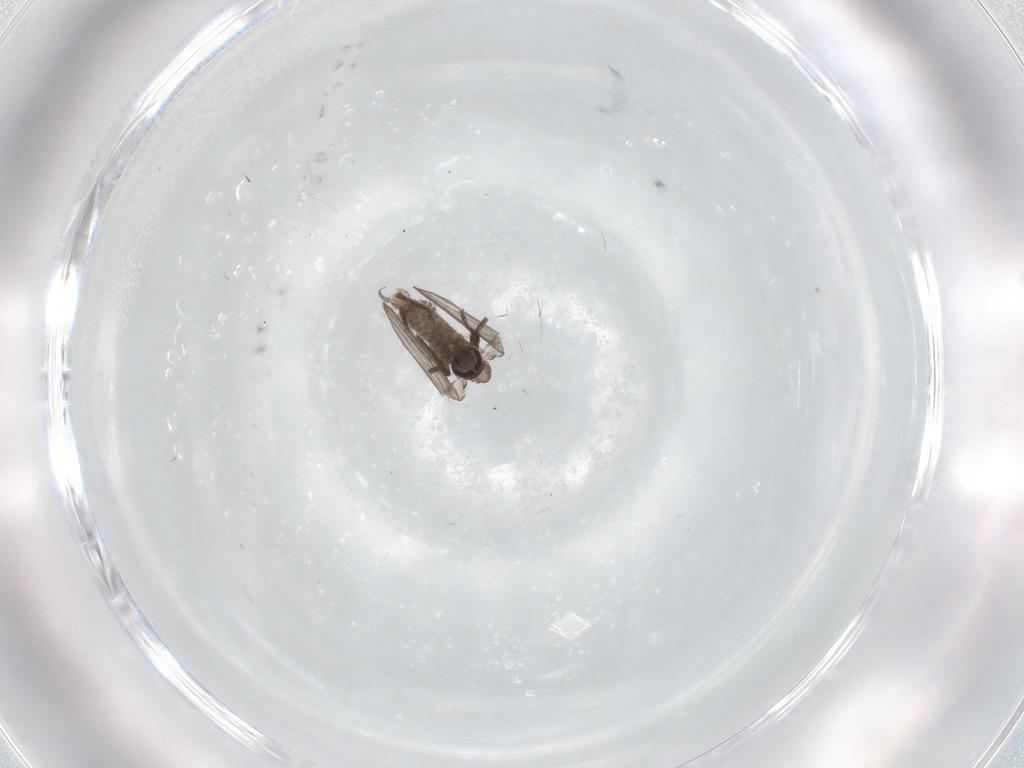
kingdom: Animalia
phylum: Arthropoda
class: Insecta
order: Diptera
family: Psychodidae
